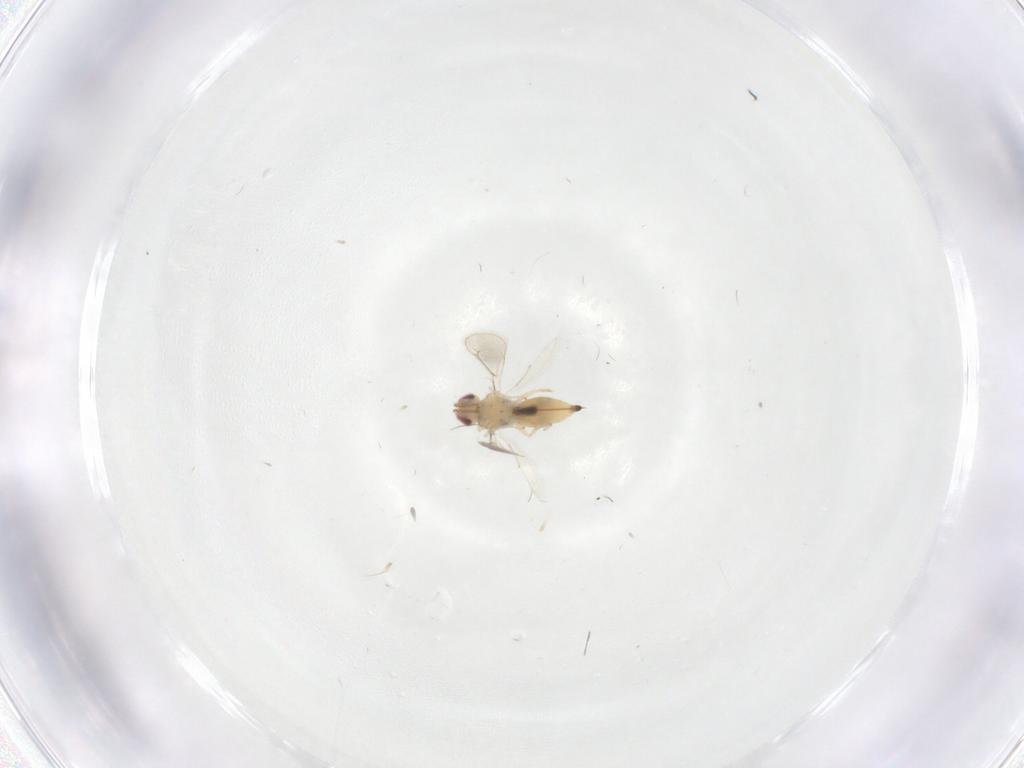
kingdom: Animalia
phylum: Arthropoda
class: Insecta
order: Hymenoptera
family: Eulophidae
